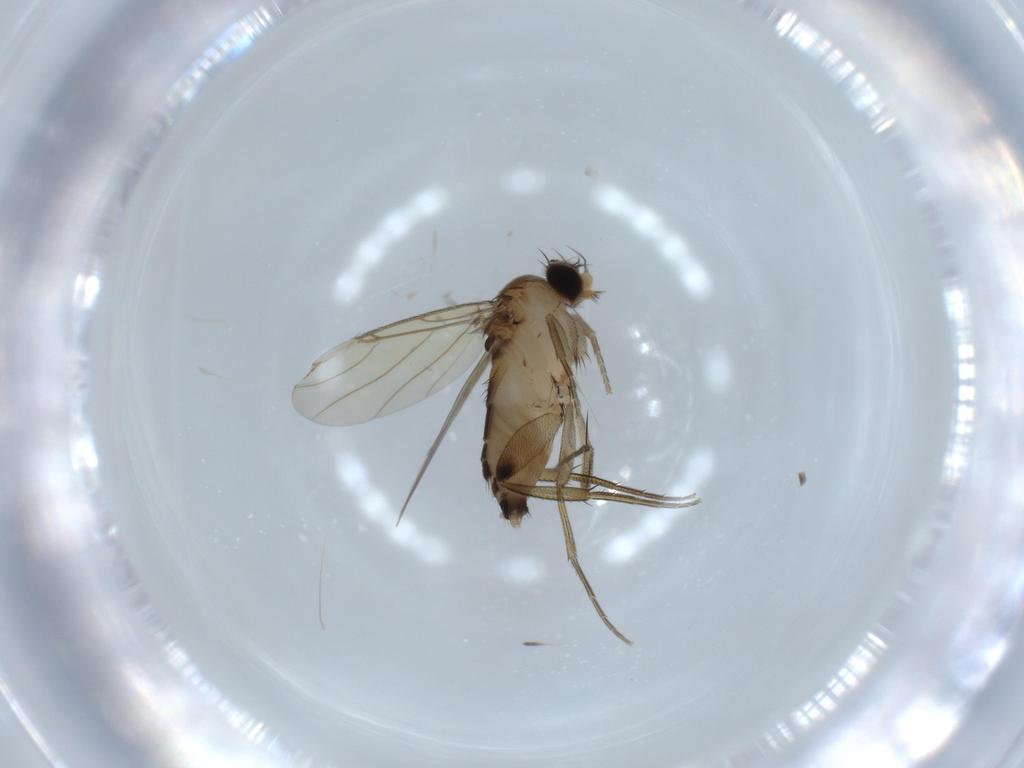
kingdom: Animalia
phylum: Arthropoda
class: Insecta
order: Diptera
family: Phoridae
